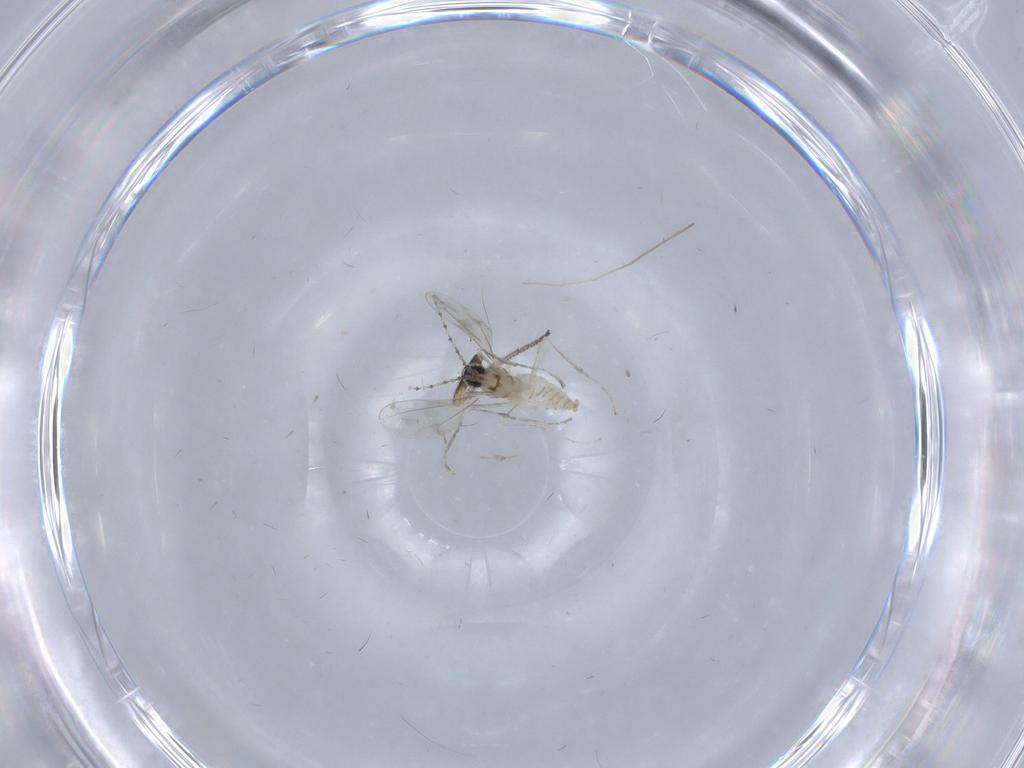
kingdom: Animalia
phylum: Arthropoda
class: Insecta
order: Diptera
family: Cecidomyiidae
